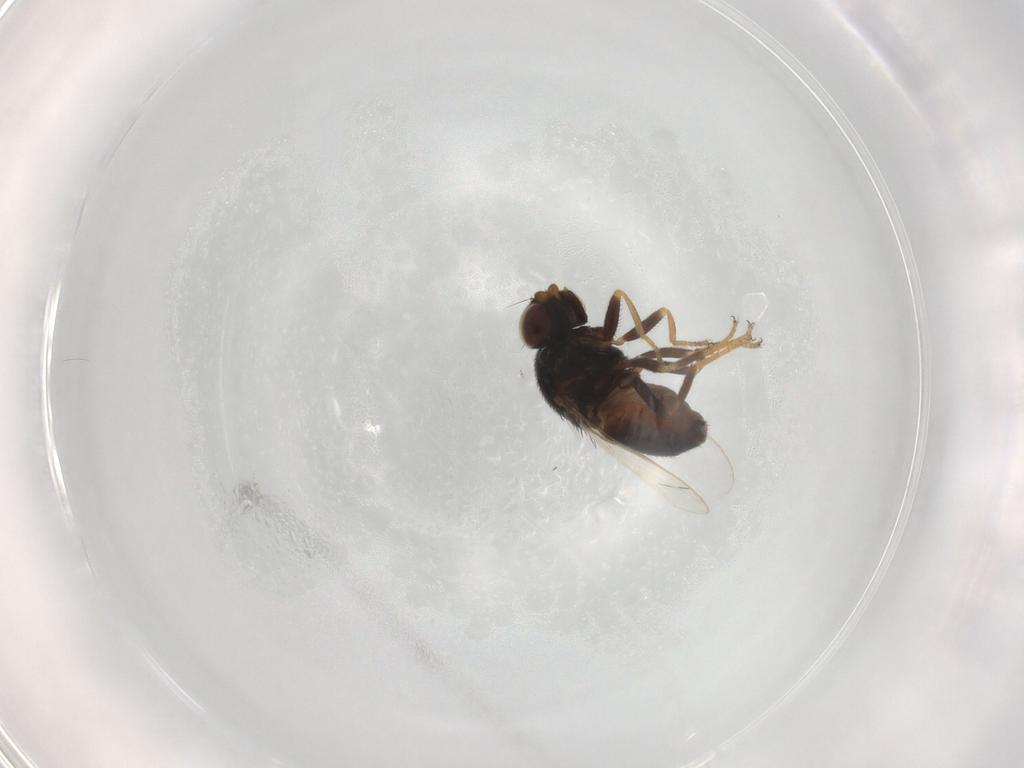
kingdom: Animalia
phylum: Arthropoda
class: Insecta
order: Diptera
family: Chloropidae
